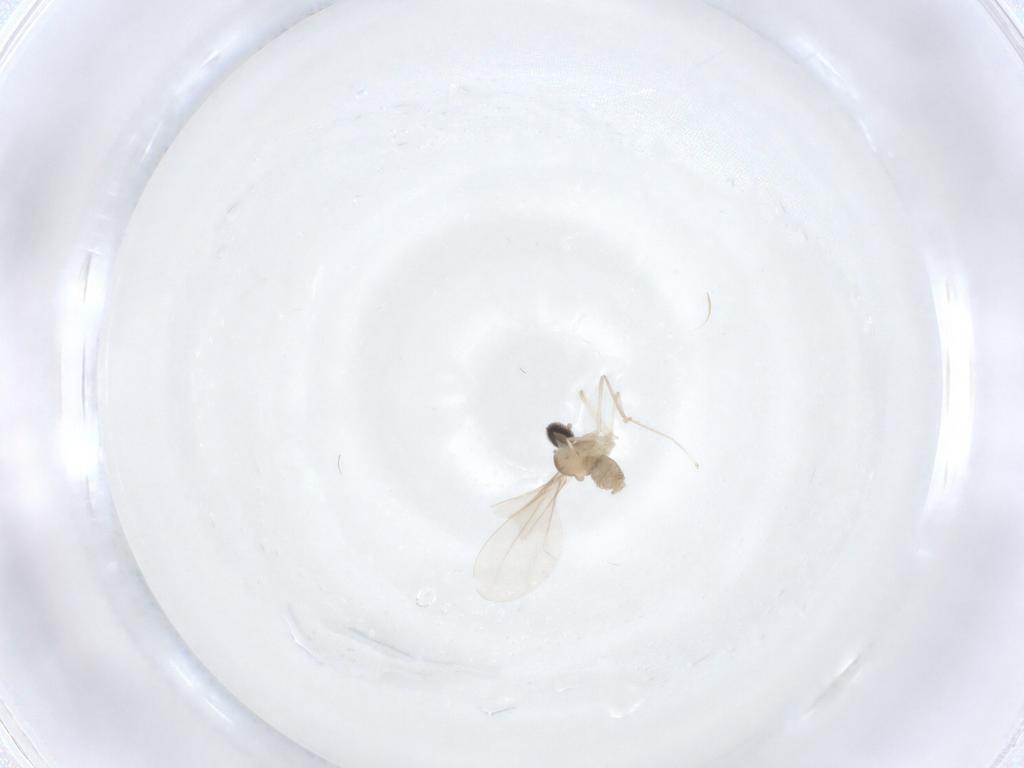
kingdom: Animalia
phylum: Arthropoda
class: Insecta
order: Diptera
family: Cecidomyiidae
